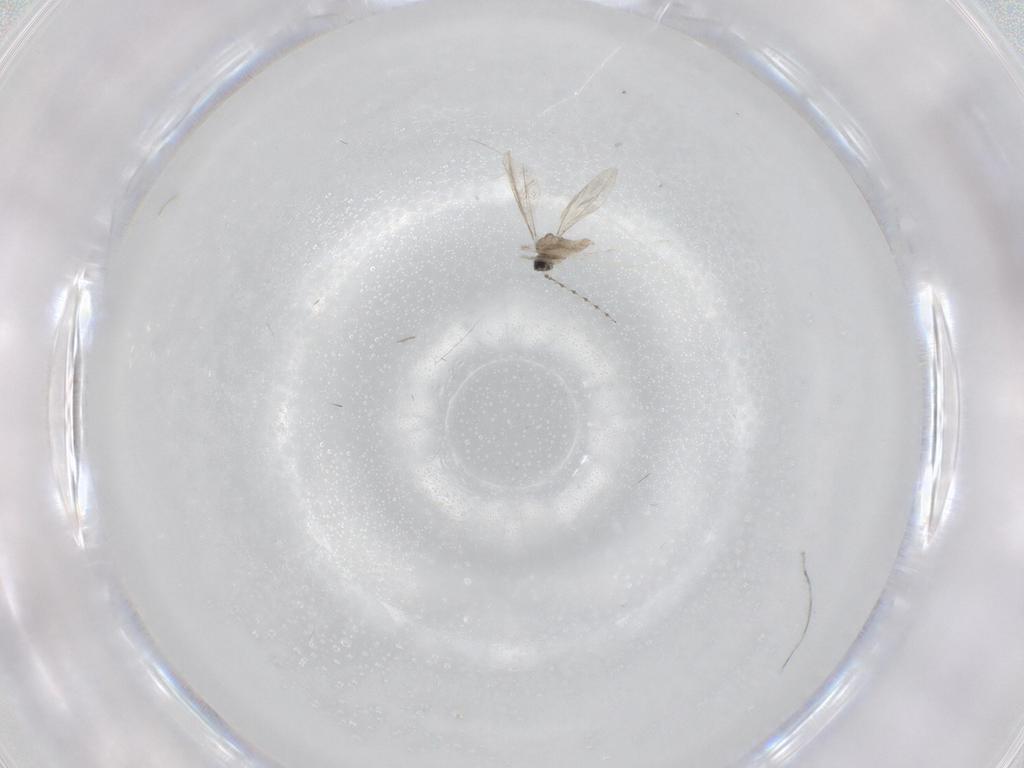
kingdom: Animalia
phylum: Arthropoda
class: Insecta
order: Diptera
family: Cecidomyiidae
